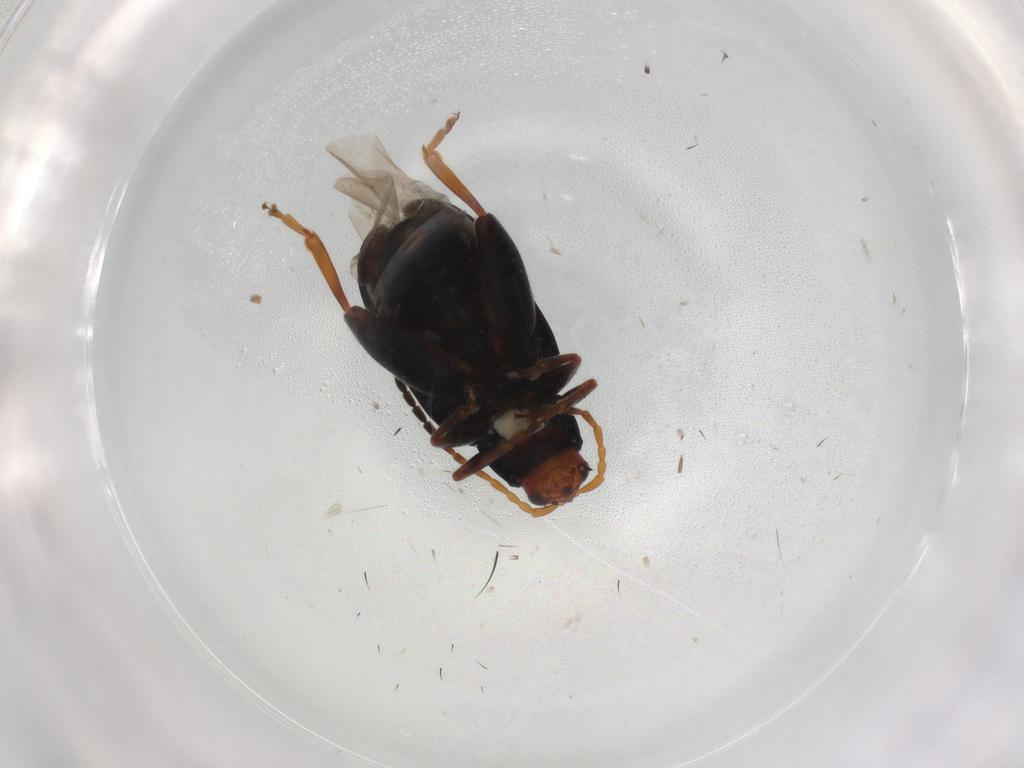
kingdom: Animalia
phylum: Arthropoda
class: Insecta
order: Coleoptera
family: Chrysomelidae
